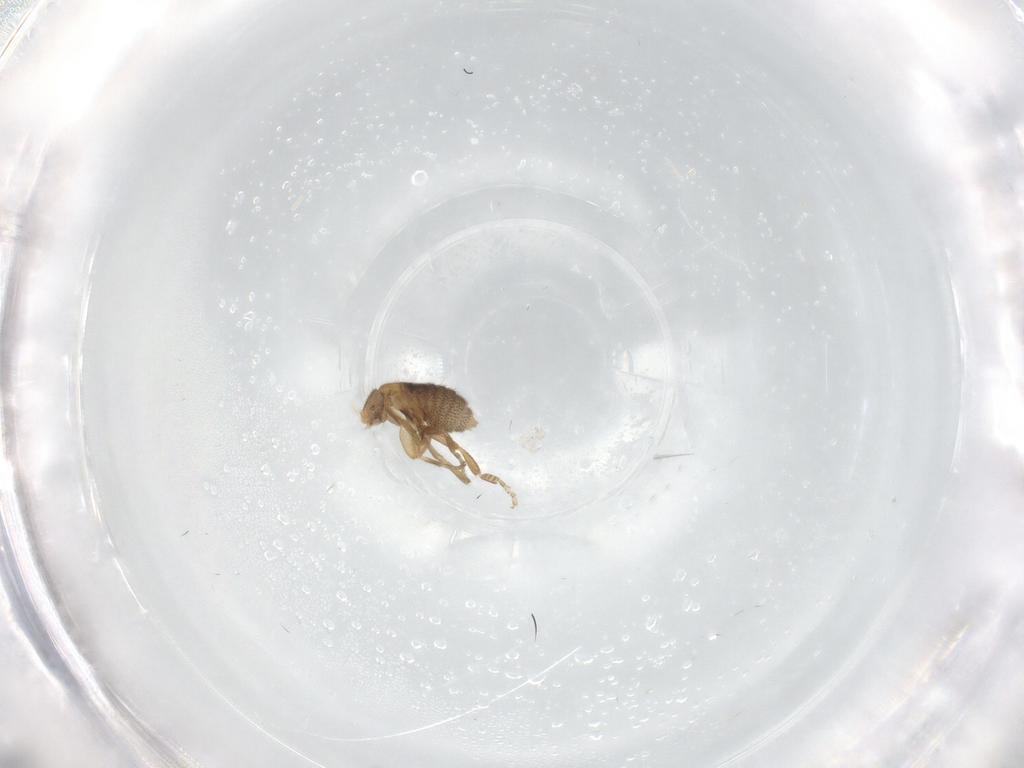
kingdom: Animalia
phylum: Arthropoda
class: Insecta
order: Diptera
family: Phoridae
